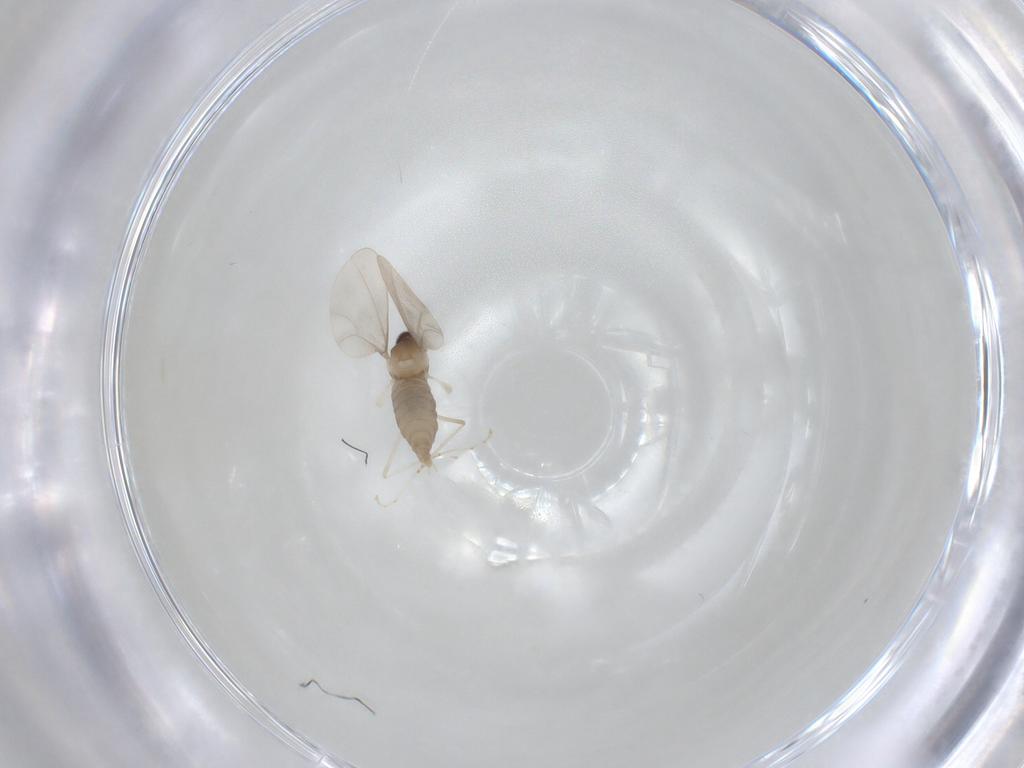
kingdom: Animalia
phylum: Arthropoda
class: Insecta
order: Diptera
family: Cecidomyiidae
